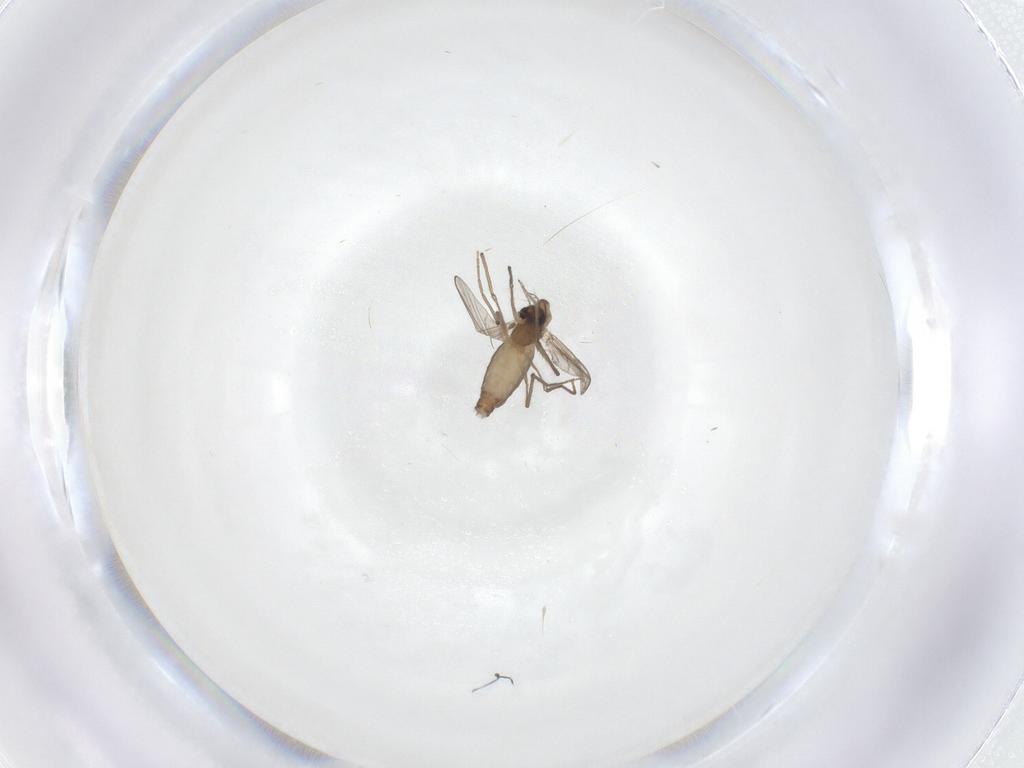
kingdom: Animalia
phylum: Arthropoda
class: Insecta
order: Diptera
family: Chironomidae
